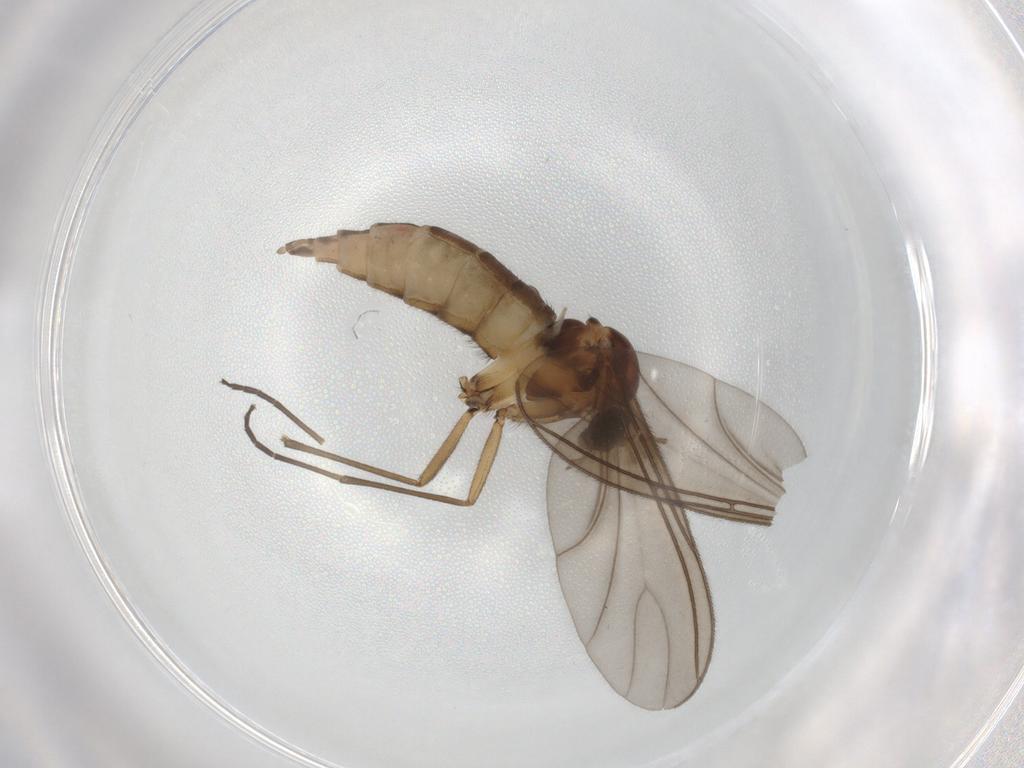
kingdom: Animalia
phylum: Arthropoda
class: Insecta
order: Diptera
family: Sciaridae
